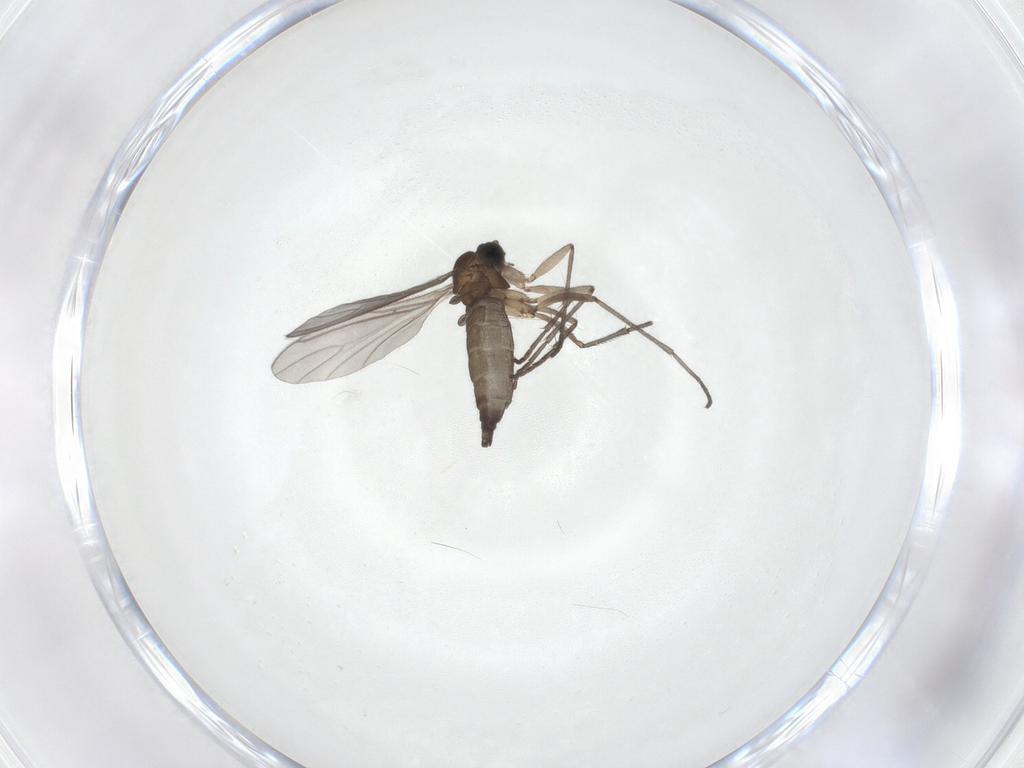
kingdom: Animalia
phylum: Arthropoda
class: Insecta
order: Diptera
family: Sciaridae
